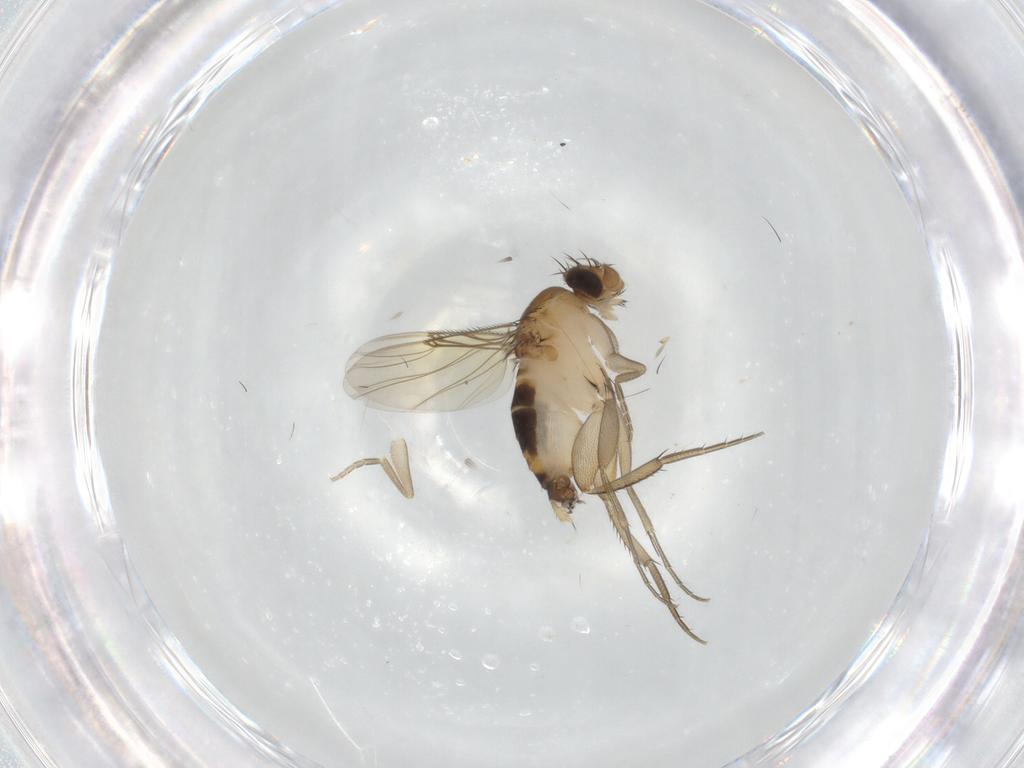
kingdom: Animalia
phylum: Arthropoda
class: Insecta
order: Diptera
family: Phoridae
